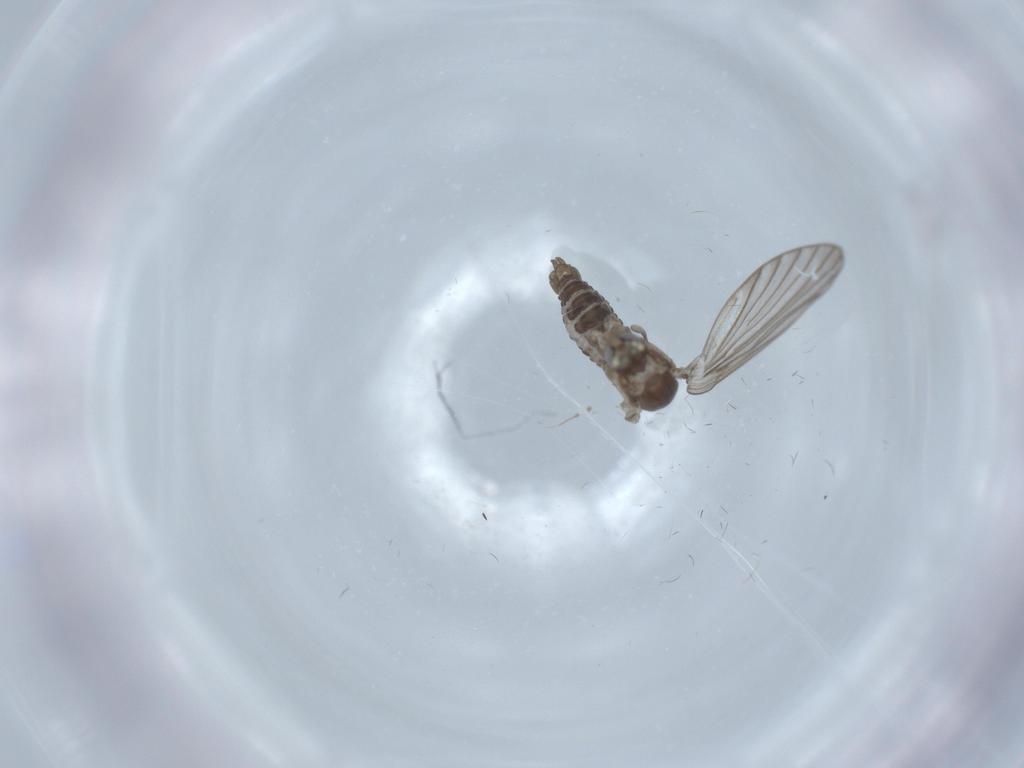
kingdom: Animalia
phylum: Arthropoda
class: Insecta
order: Diptera
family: Psychodidae
